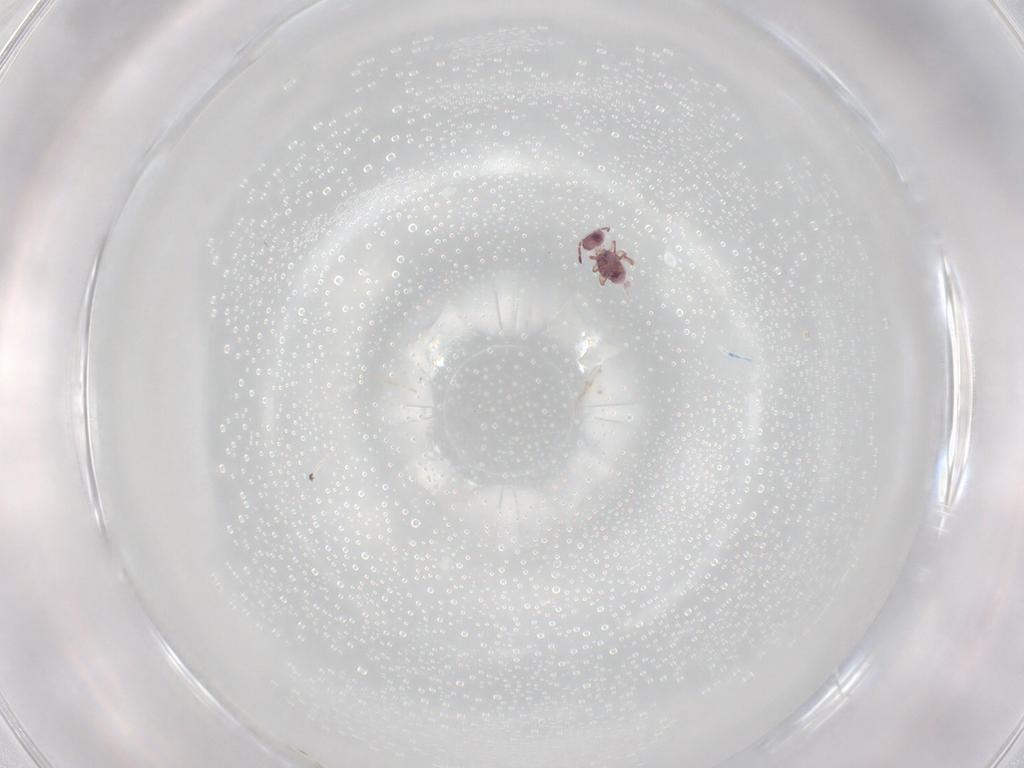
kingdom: Animalia
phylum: Arthropoda
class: Collembola
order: Symphypleona
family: Sminthurididae
